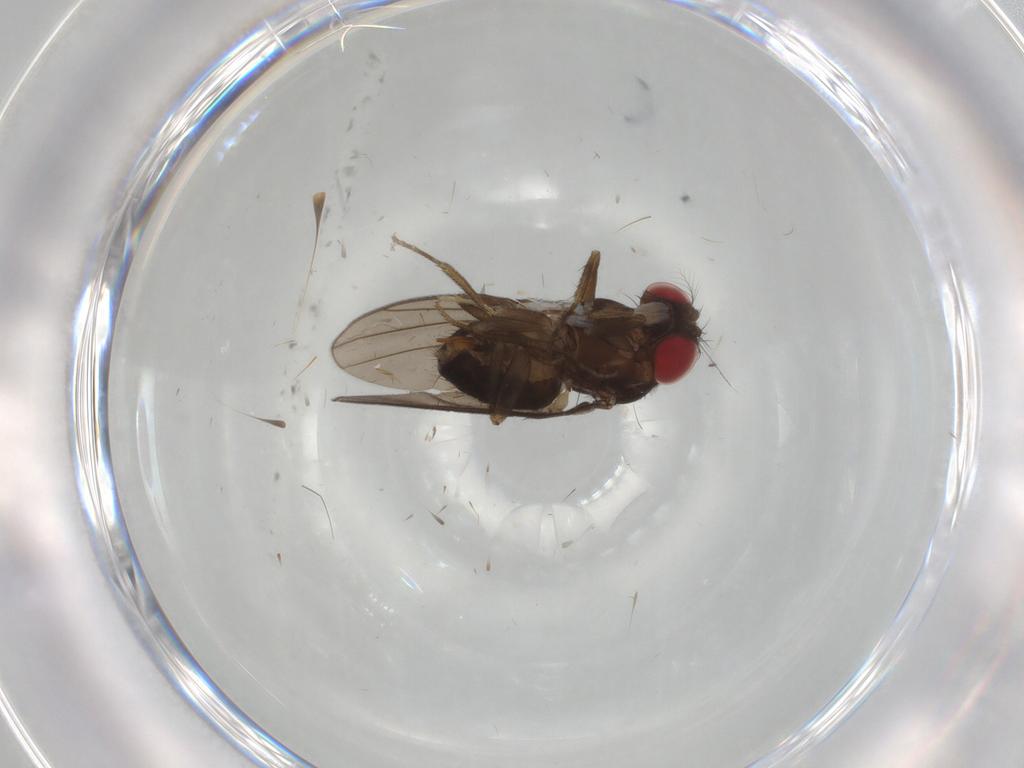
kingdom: Animalia
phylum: Arthropoda
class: Insecta
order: Diptera
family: Drosophilidae
